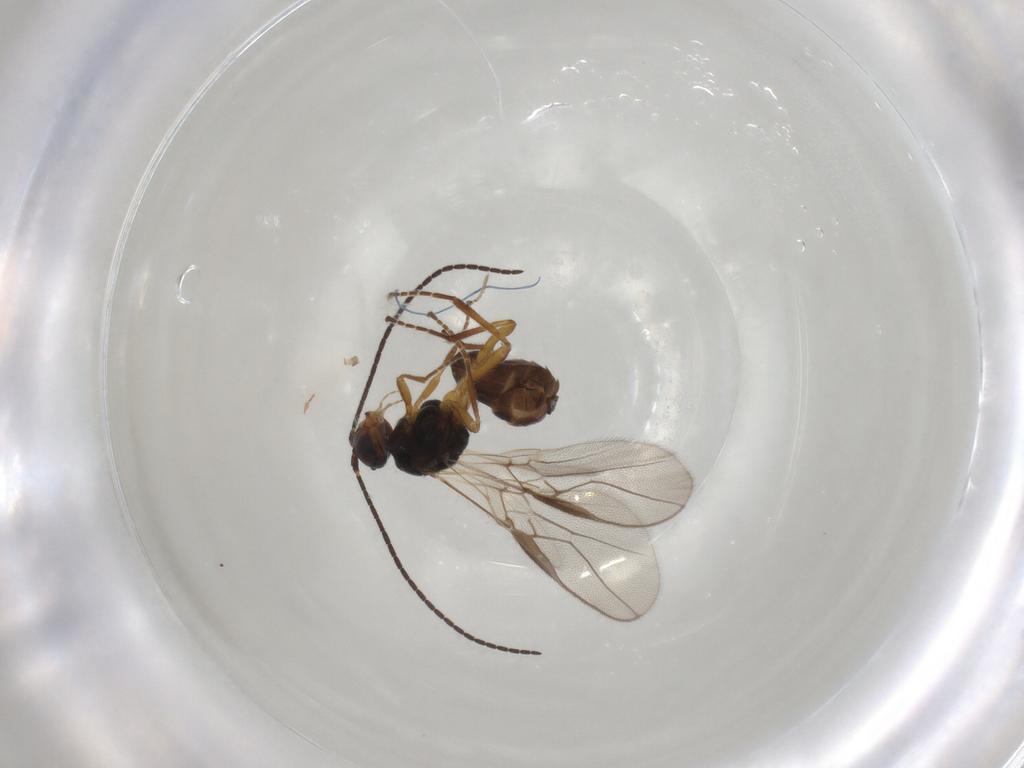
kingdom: Animalia
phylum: Arthropoda
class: Insecta
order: Hymenoptera
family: Braconidae
